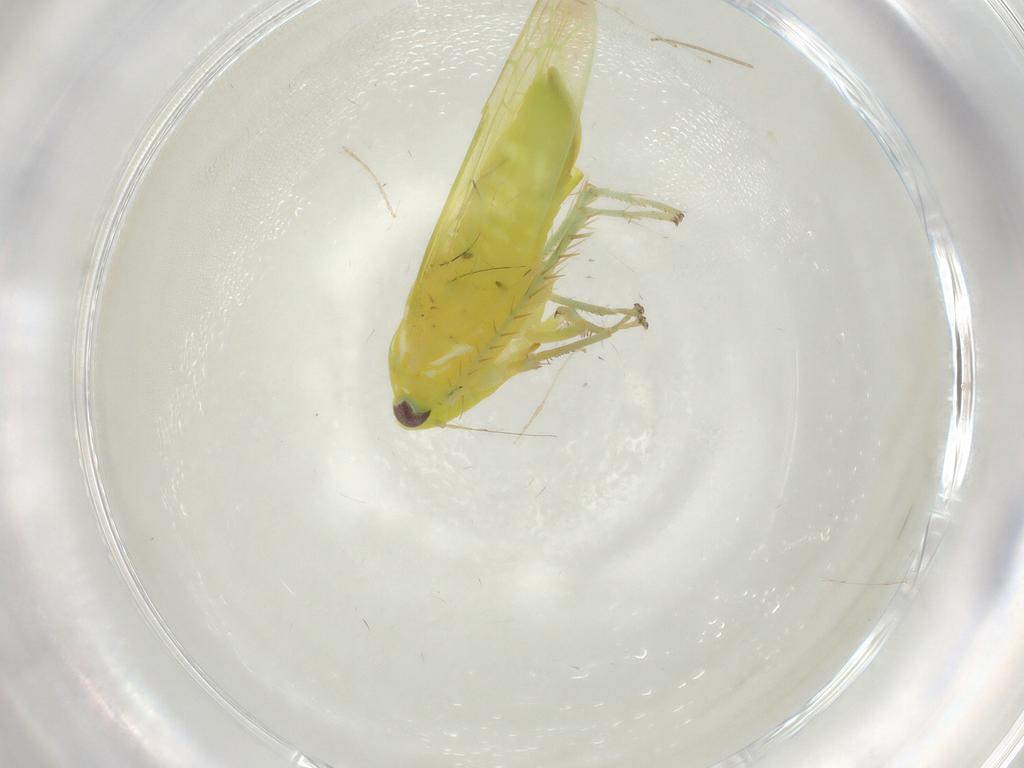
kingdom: Animalia
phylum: Arthropoda
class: Insecta
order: Hemiptera
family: Cicadellidae
